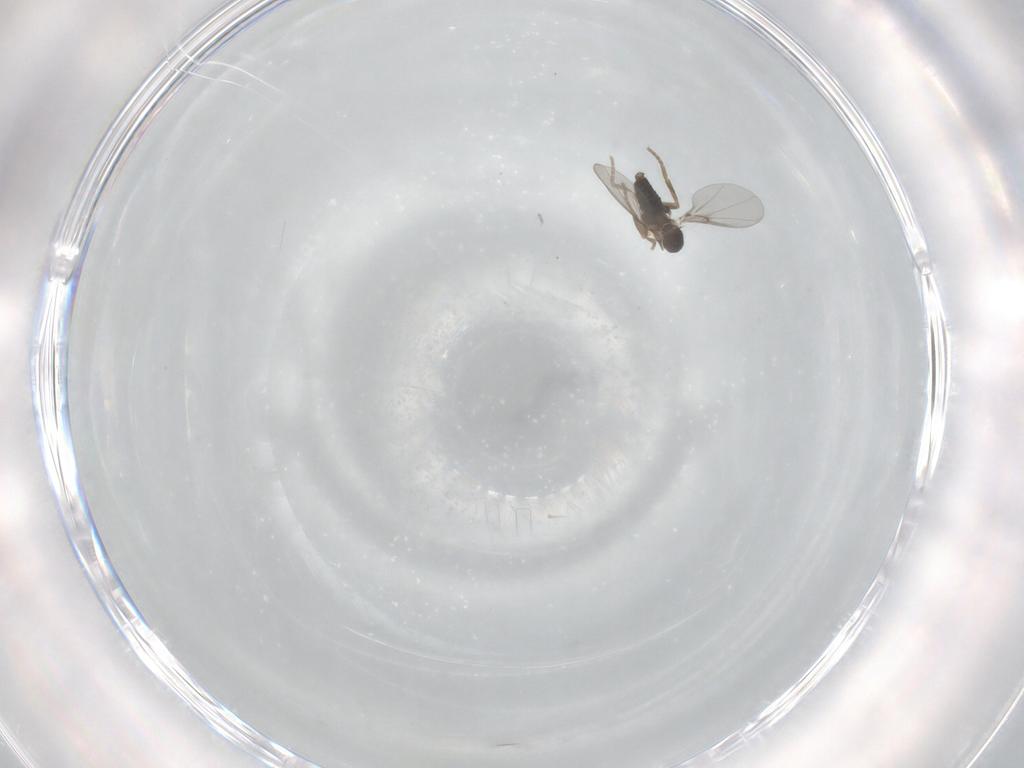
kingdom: Animalia
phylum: Arthropoda
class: Insecta
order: Diptera
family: Phoridae
